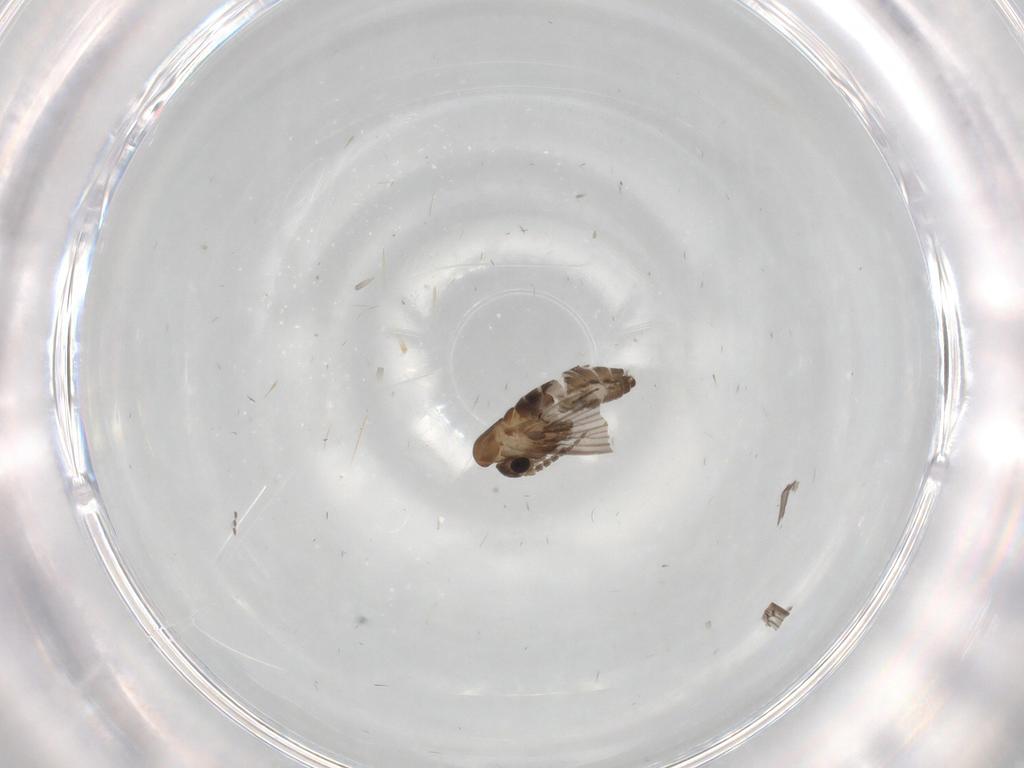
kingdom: Animalia
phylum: Arthropoda
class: Insecta
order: Diptera
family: Psychodidae
